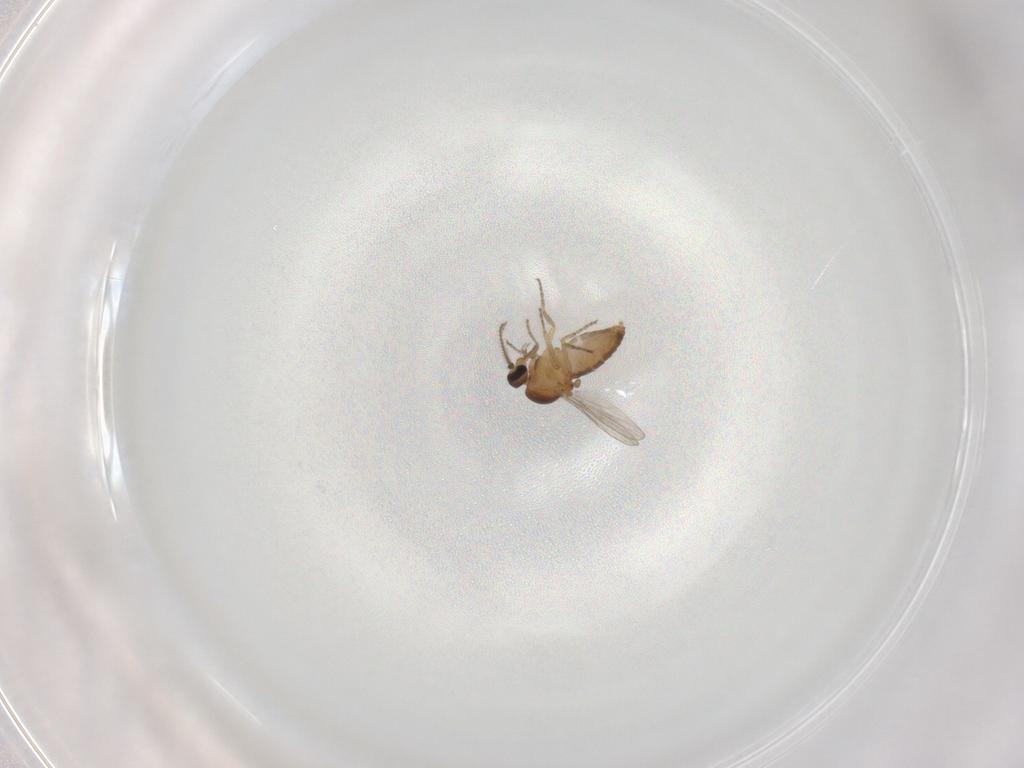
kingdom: Animalia
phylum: Arthropoda
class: Insecta
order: Diptera
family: Ceratopogonidae
